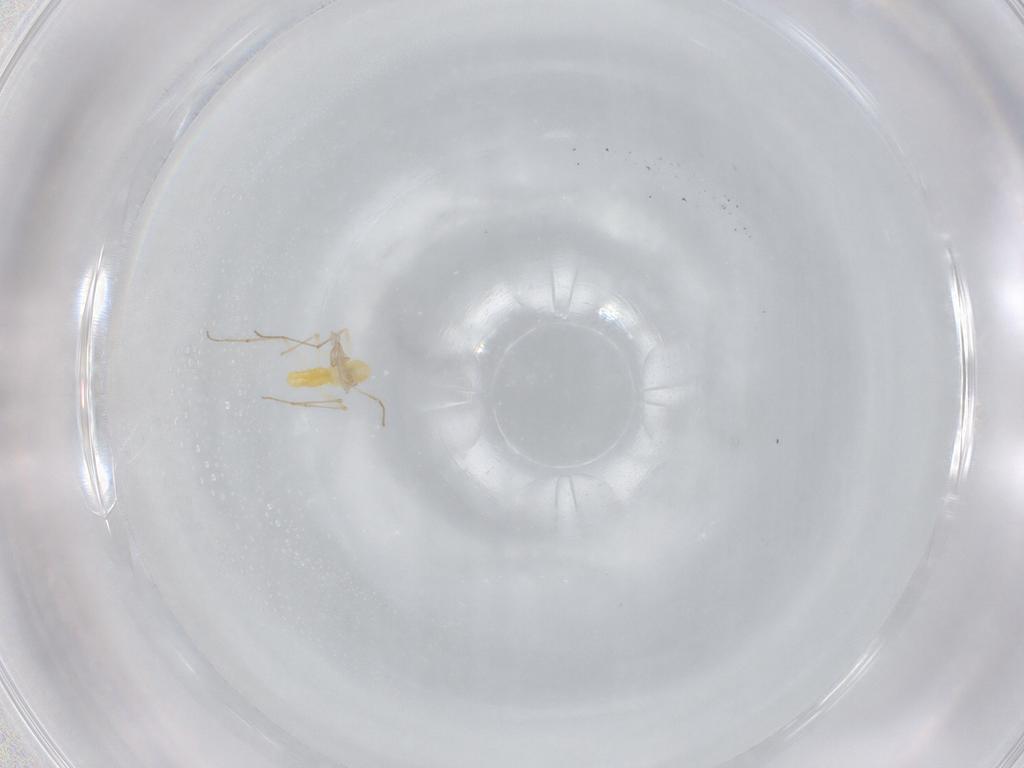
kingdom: Animalia
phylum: Arthropoda
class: Insecta
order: Diptera
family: Chironomidae
